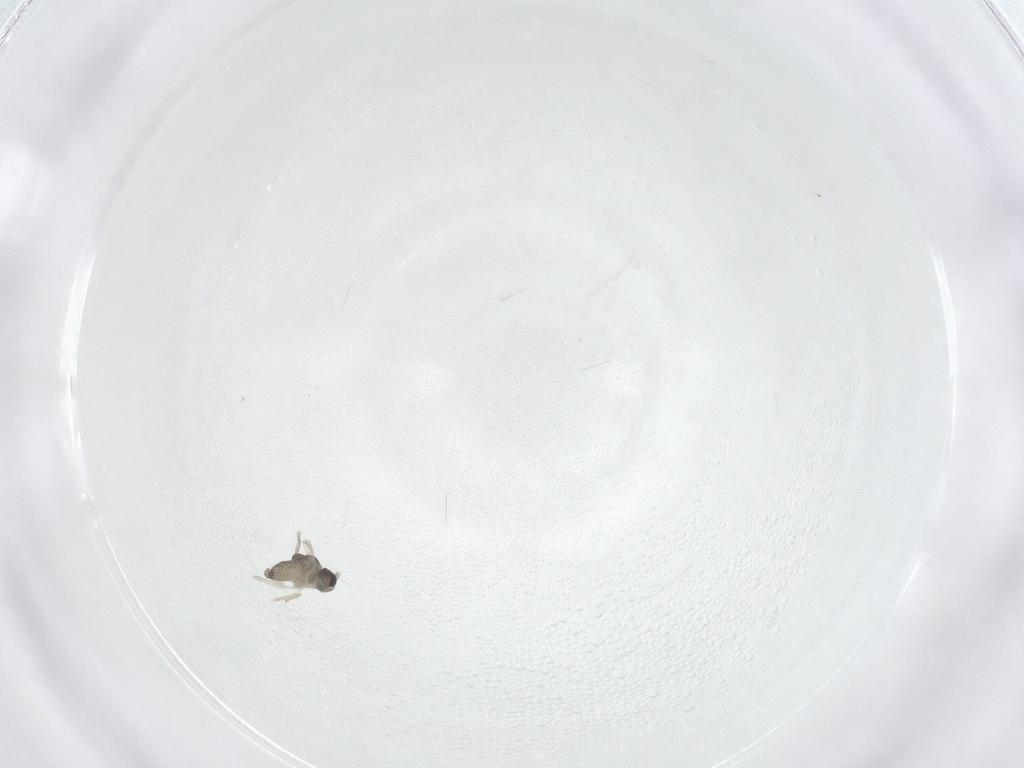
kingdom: Animalia
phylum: Arthropoda
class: Insecta
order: Diptera
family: Cecidomyiidae
